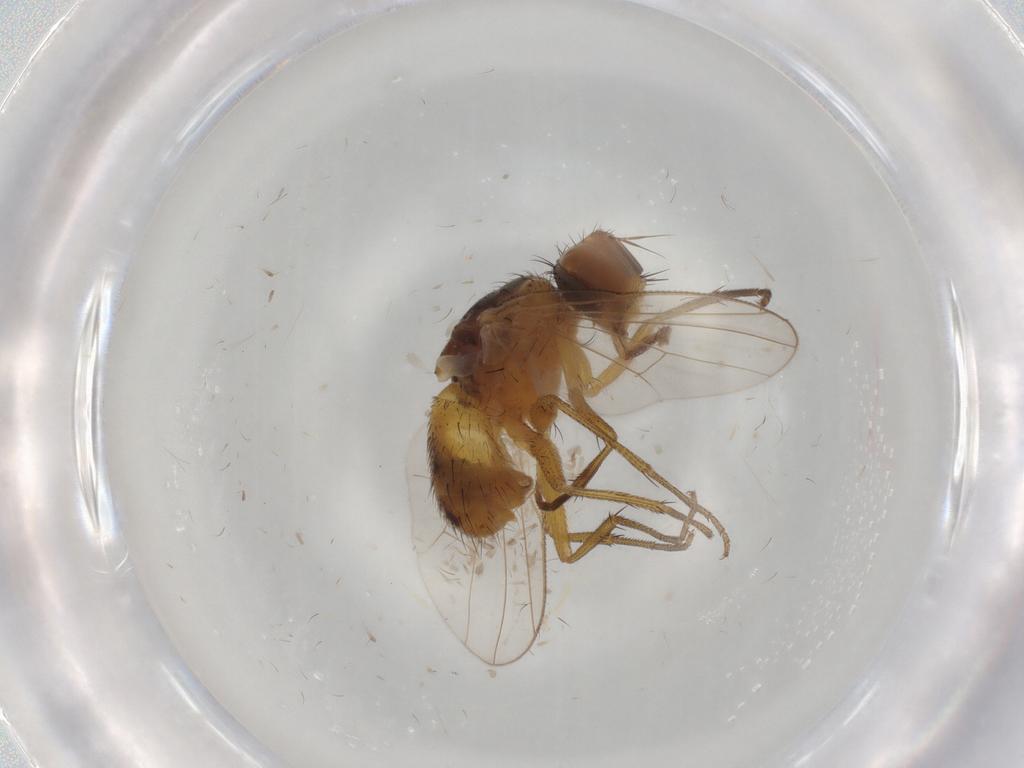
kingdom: Animalia
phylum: Arthropoda
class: Insecta
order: Diptera
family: Muscidae
